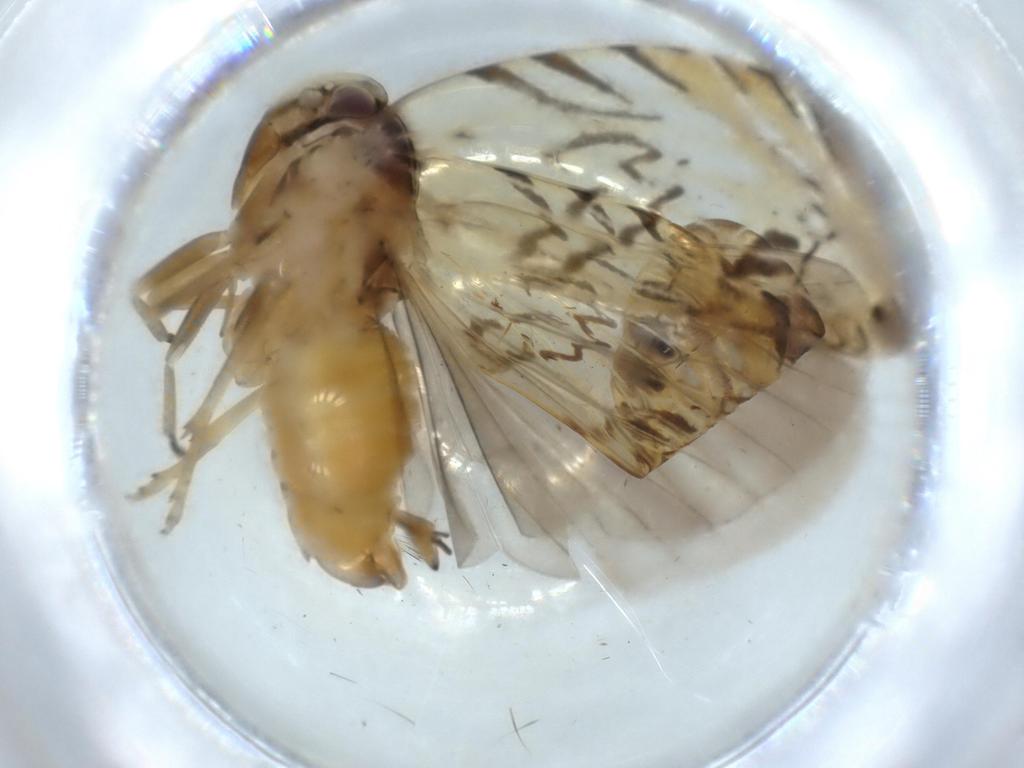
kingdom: Animalia
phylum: Arthropoda
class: Insecta
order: Hemiptera
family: Cixiidae
